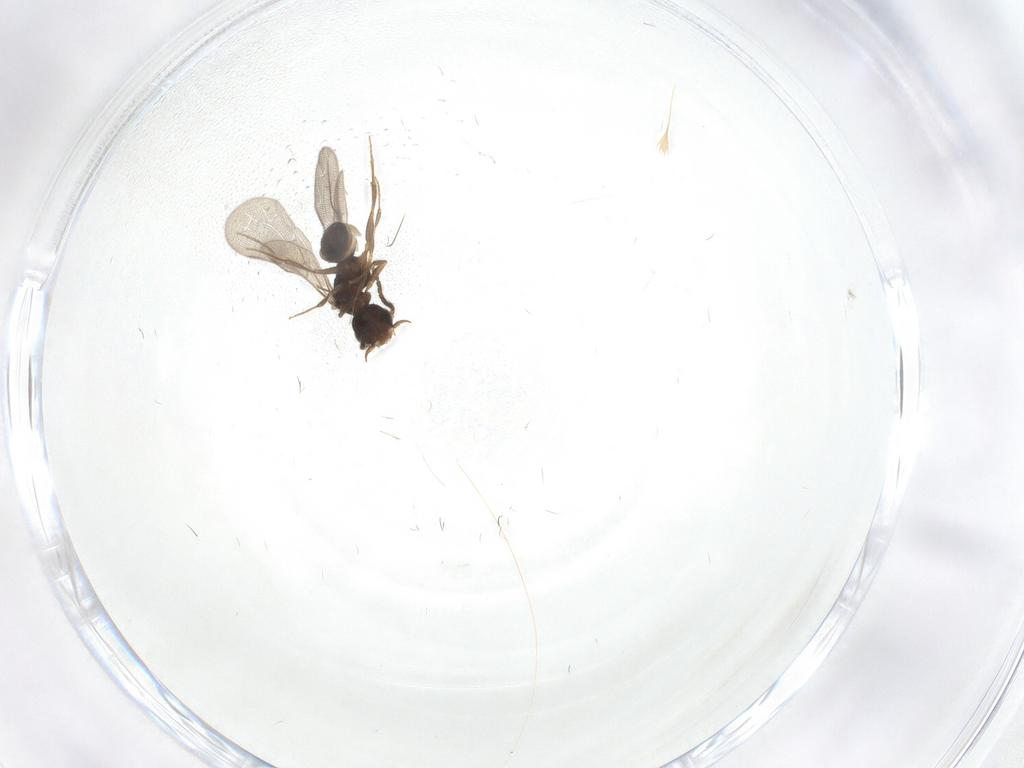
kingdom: Animalia
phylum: Arthropoda
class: Insecta
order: Hymenoptera
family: Bethylidae
